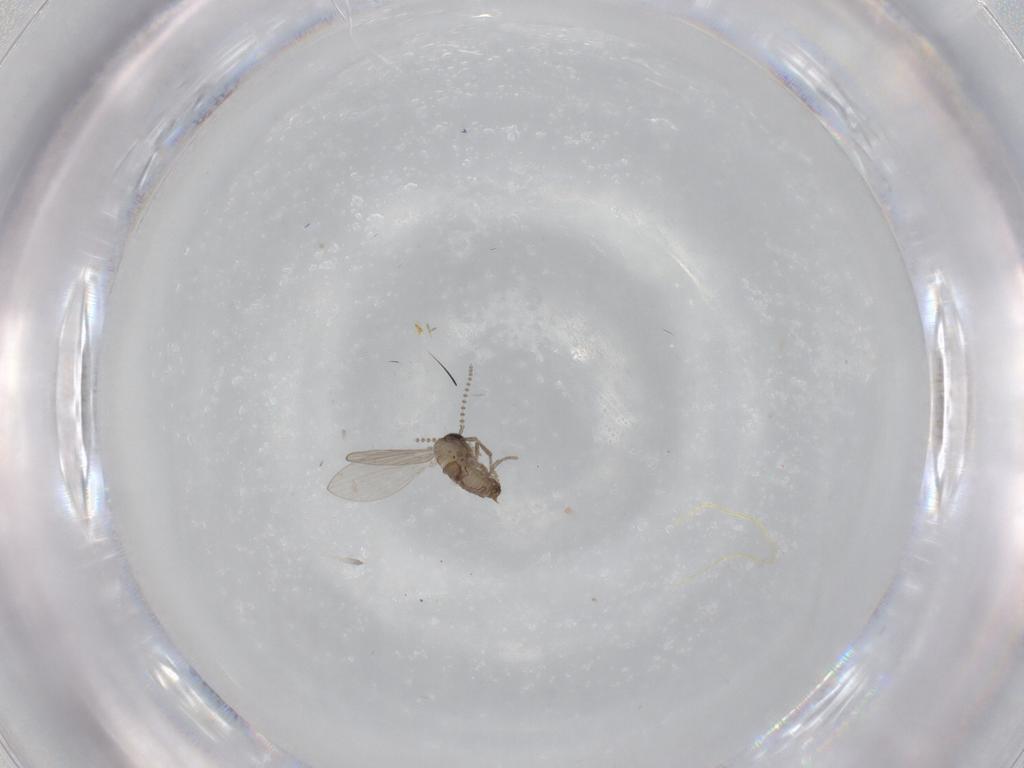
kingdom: Animalia
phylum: Arthropoda
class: Insecta
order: Diptera
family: Psychodidae
